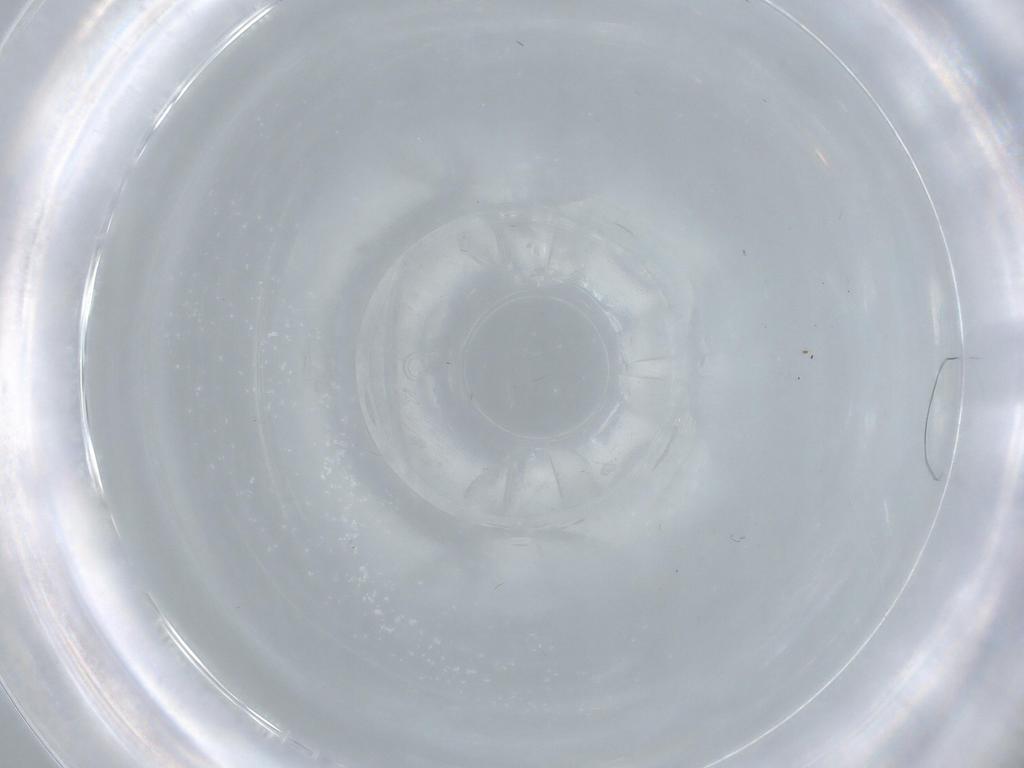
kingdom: Animalia
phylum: Arthropoda
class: Insecta
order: Diptera
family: Cecidomyiidae
